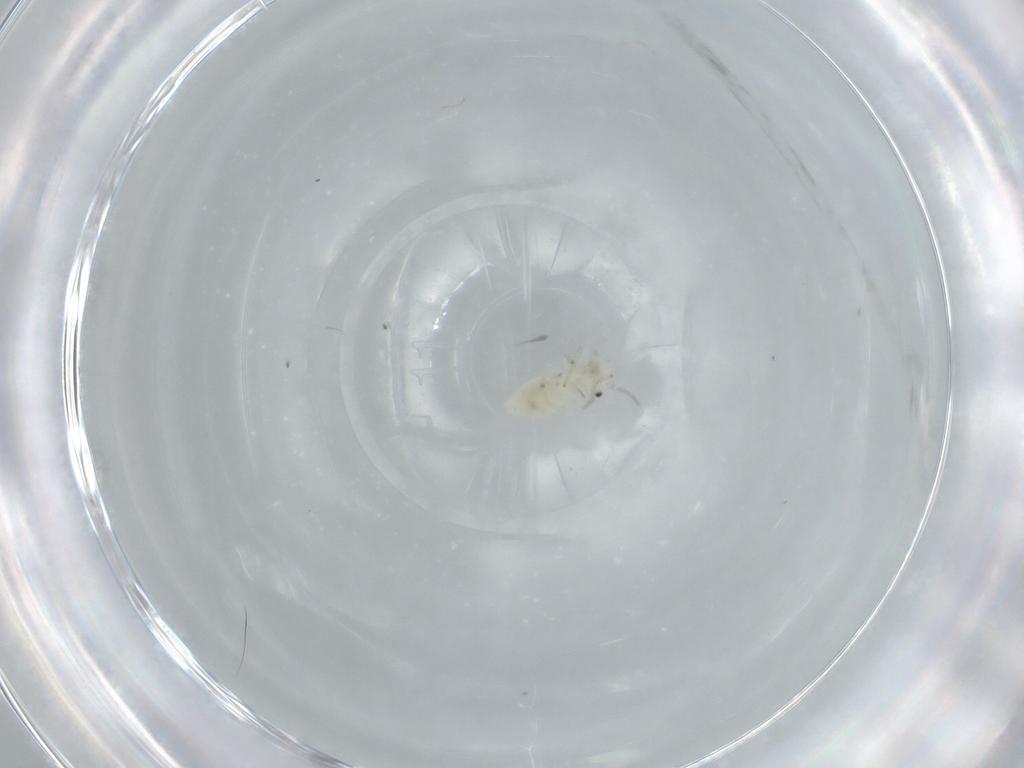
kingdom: Animalia
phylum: Arthropoda
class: Insecta
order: Psocodea
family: Caeciliusidae
